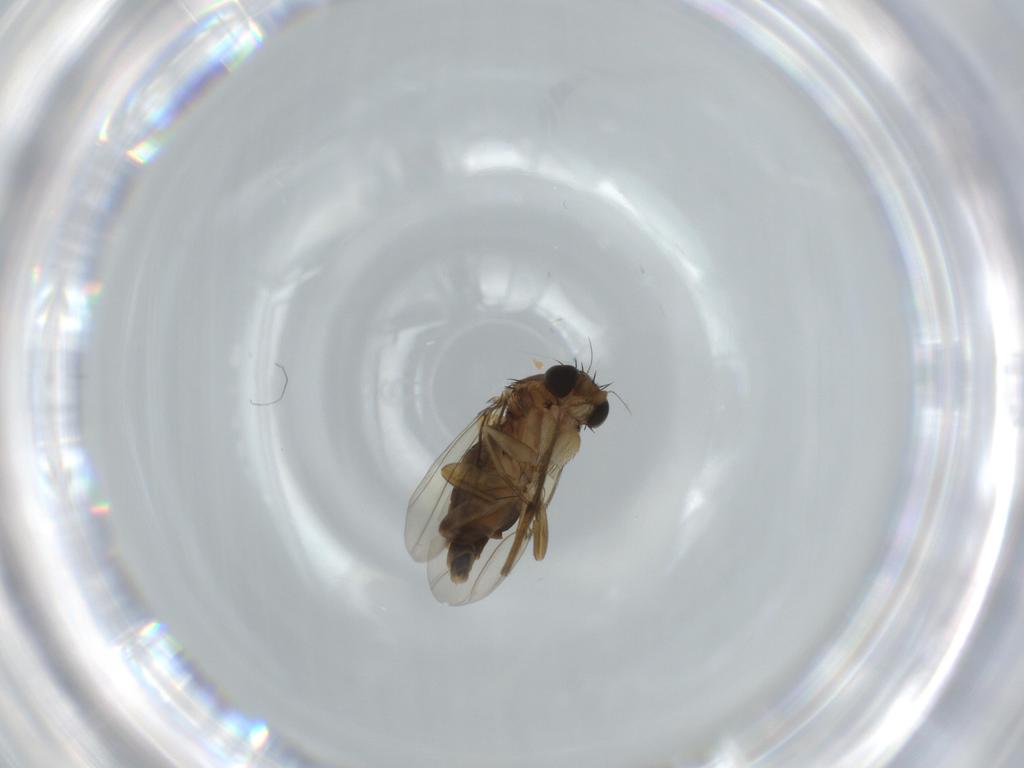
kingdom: Animalia
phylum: Arthropoda
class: Insecta
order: Diptera
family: Phoridae
